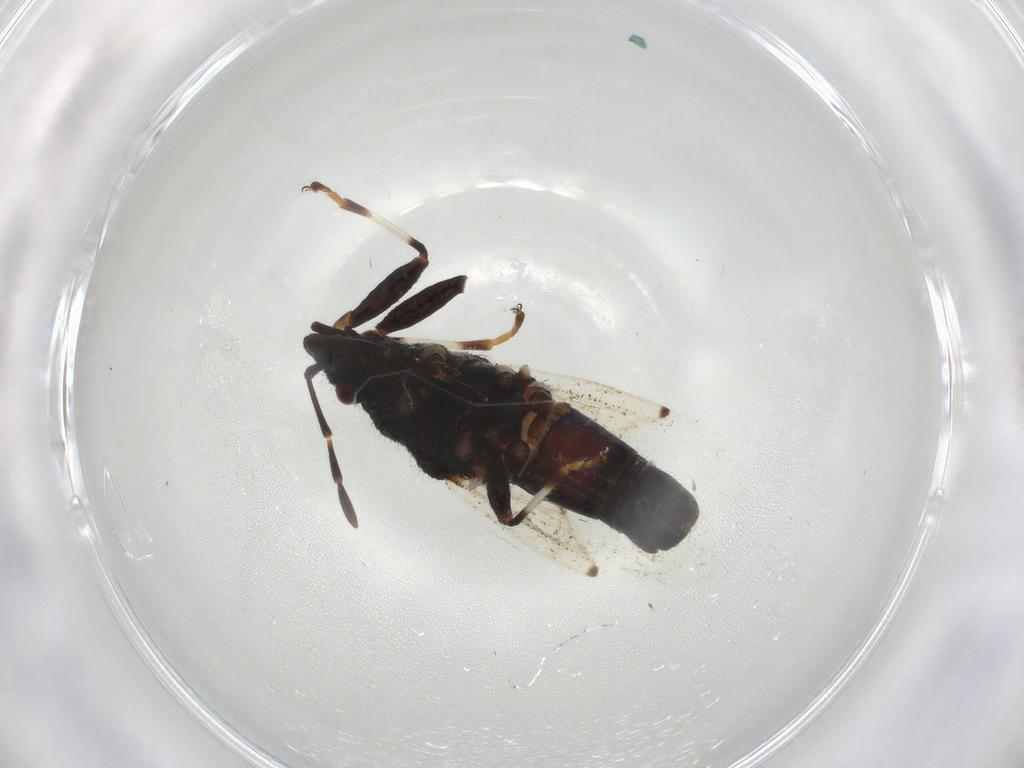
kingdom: Animalia
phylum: Arthropoda
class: Insecta
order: Hemiptera
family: Oxycarenidae
